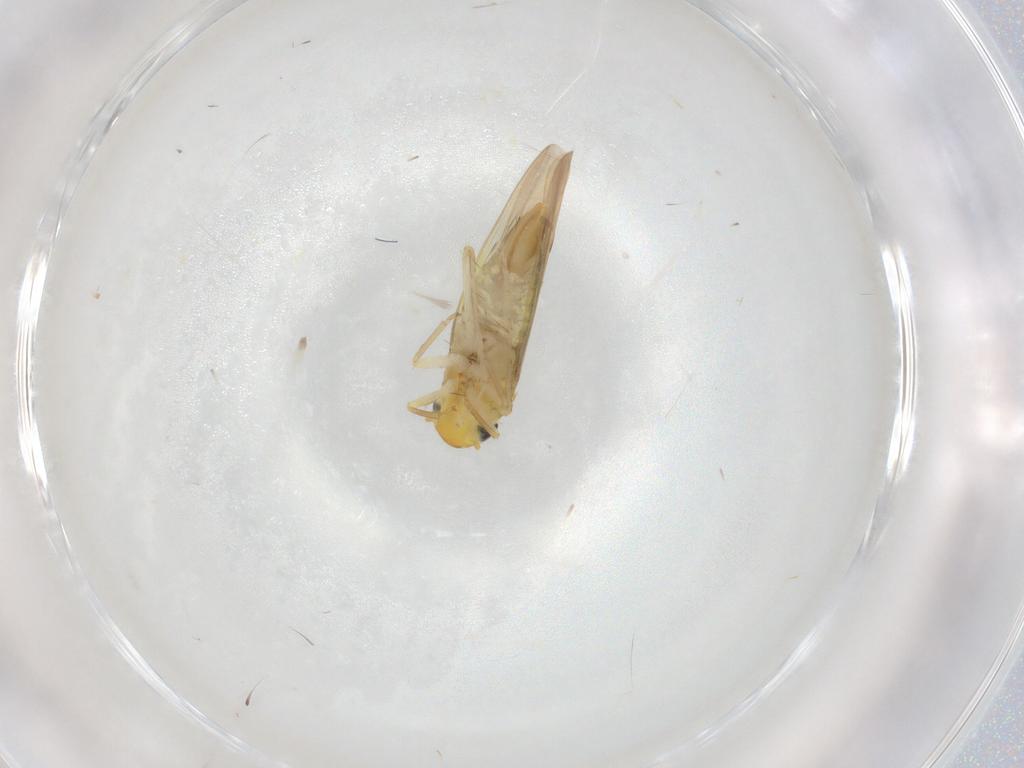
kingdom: Animalia
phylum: Arthropoda
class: Insecta
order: Hemiptera
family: Cicadellidae
